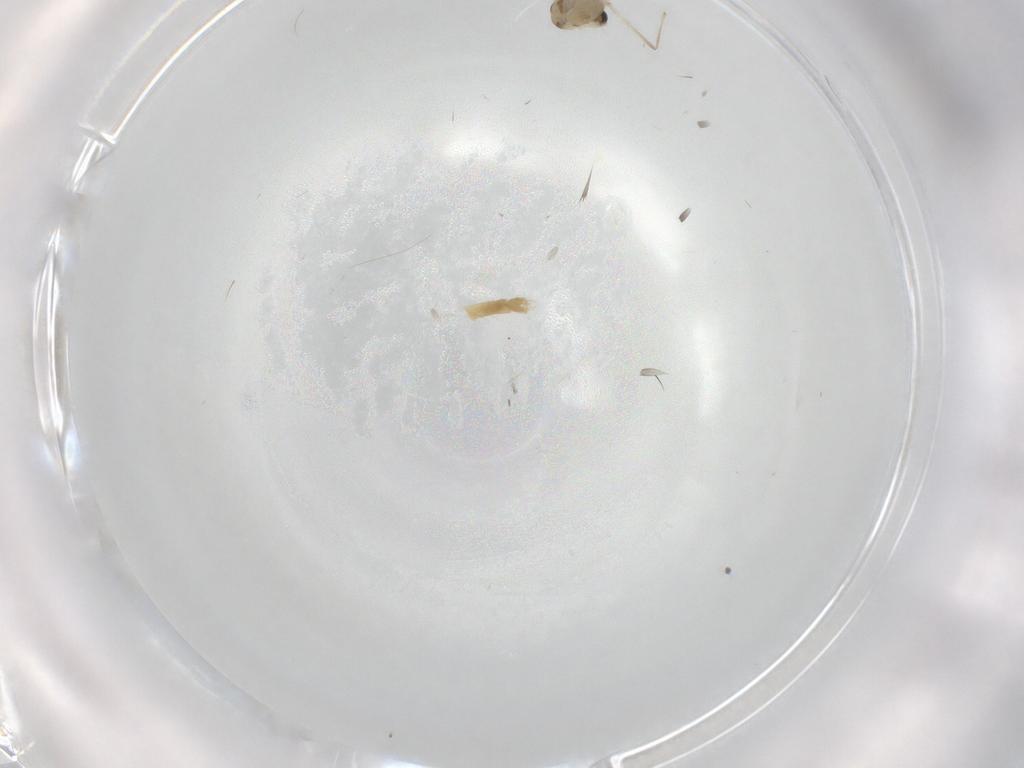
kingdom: Animalia
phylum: Arthropoda
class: Insecta
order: Diptera
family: Chironomidae
